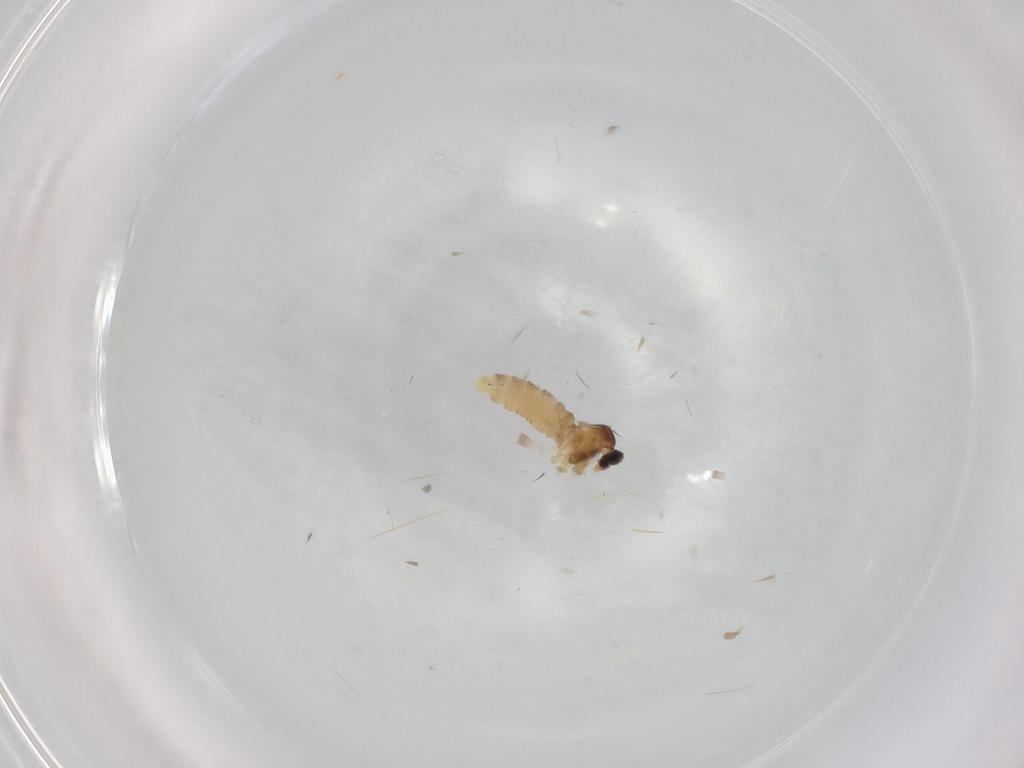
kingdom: Animalia
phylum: Arthropoda
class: Insecta
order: Diptera
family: Cecidomyiidae
